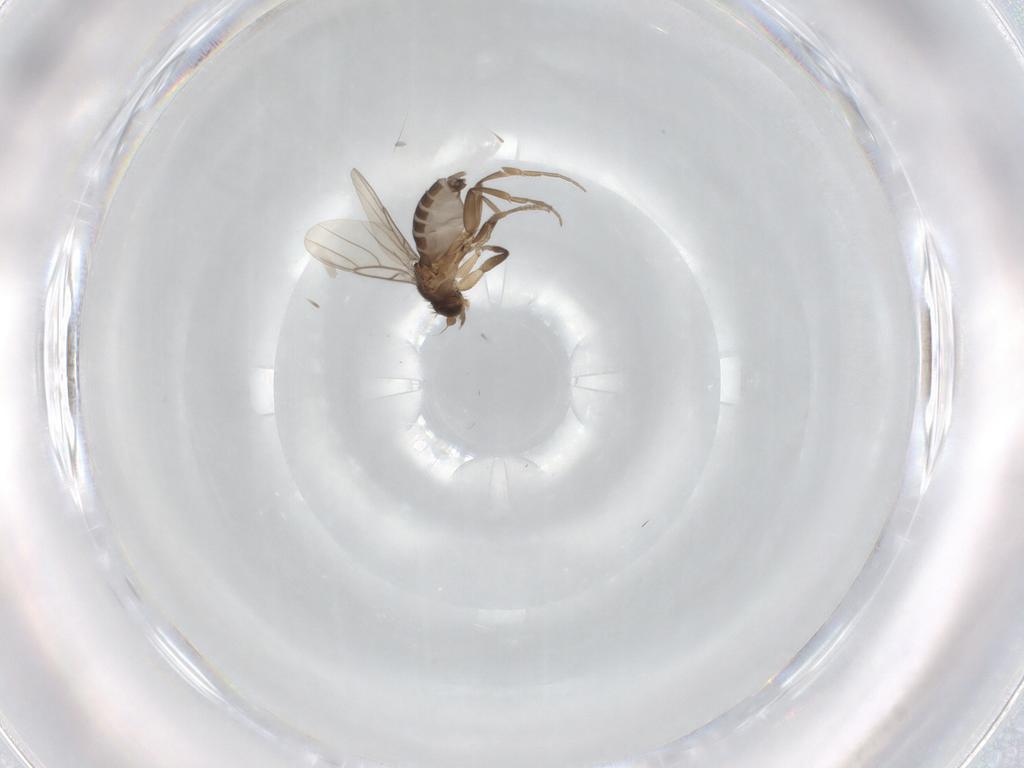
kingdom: Animalia
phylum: Arthropoda
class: Insecta
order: Diptera
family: Phoridae
